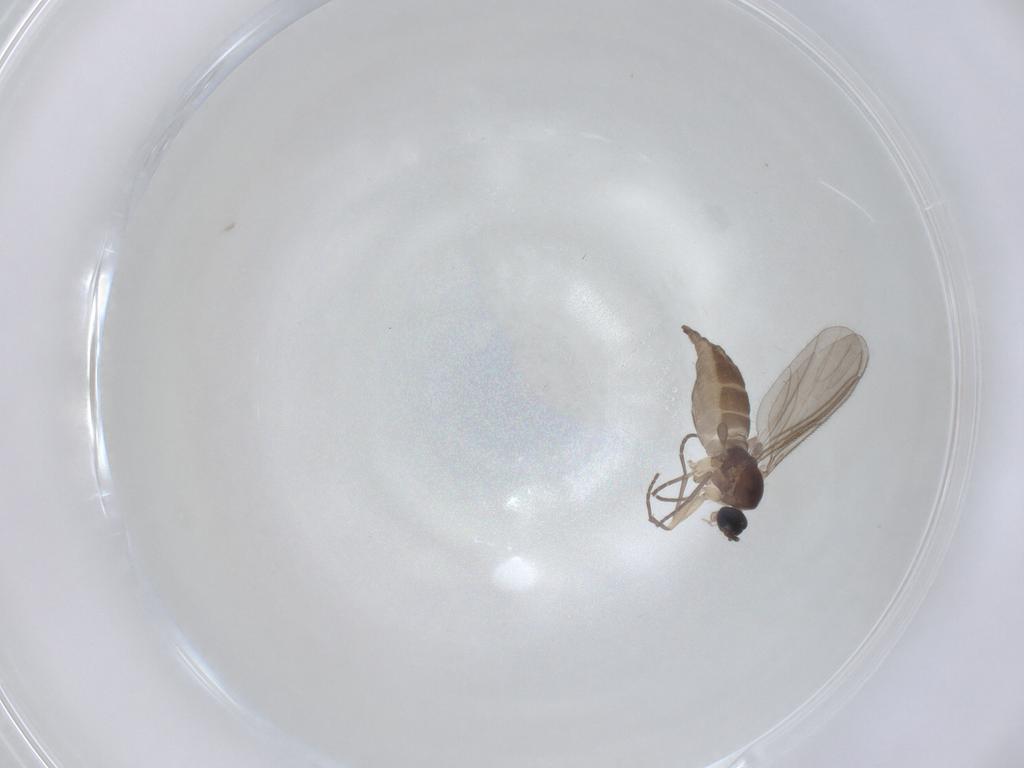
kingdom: Animalia
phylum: Arthropoda
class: Insecta
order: Diptera
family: Sciaridae
